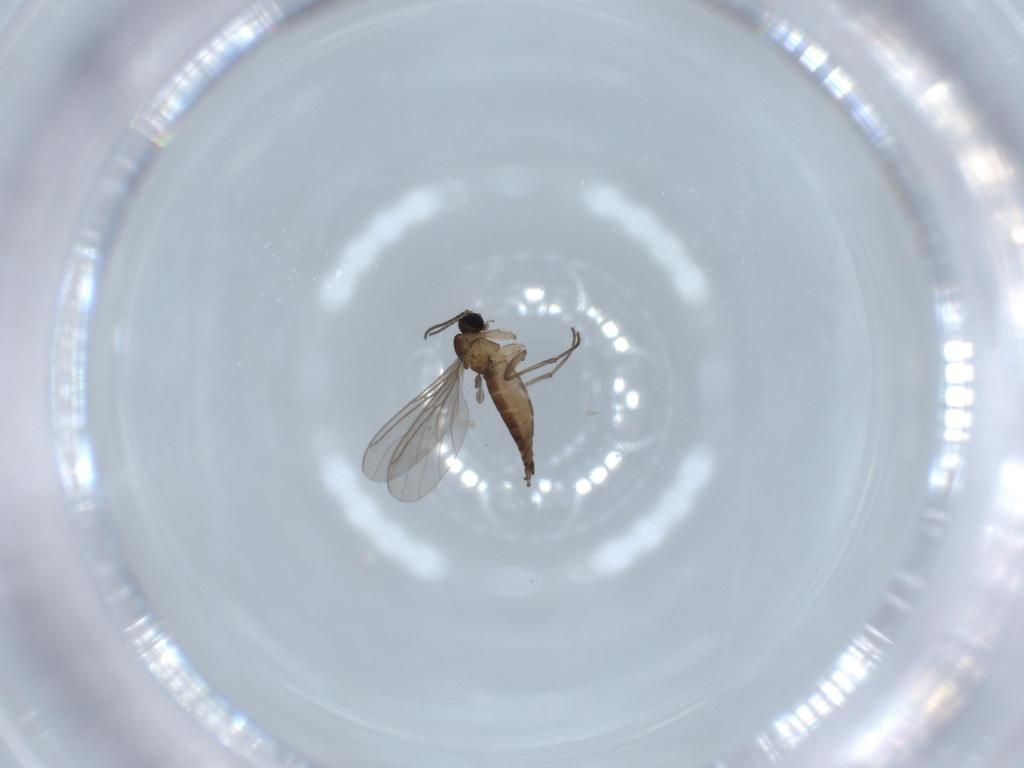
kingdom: Animalia
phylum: Arthropoda
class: Insecta
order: Diptera
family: Sciaridae
